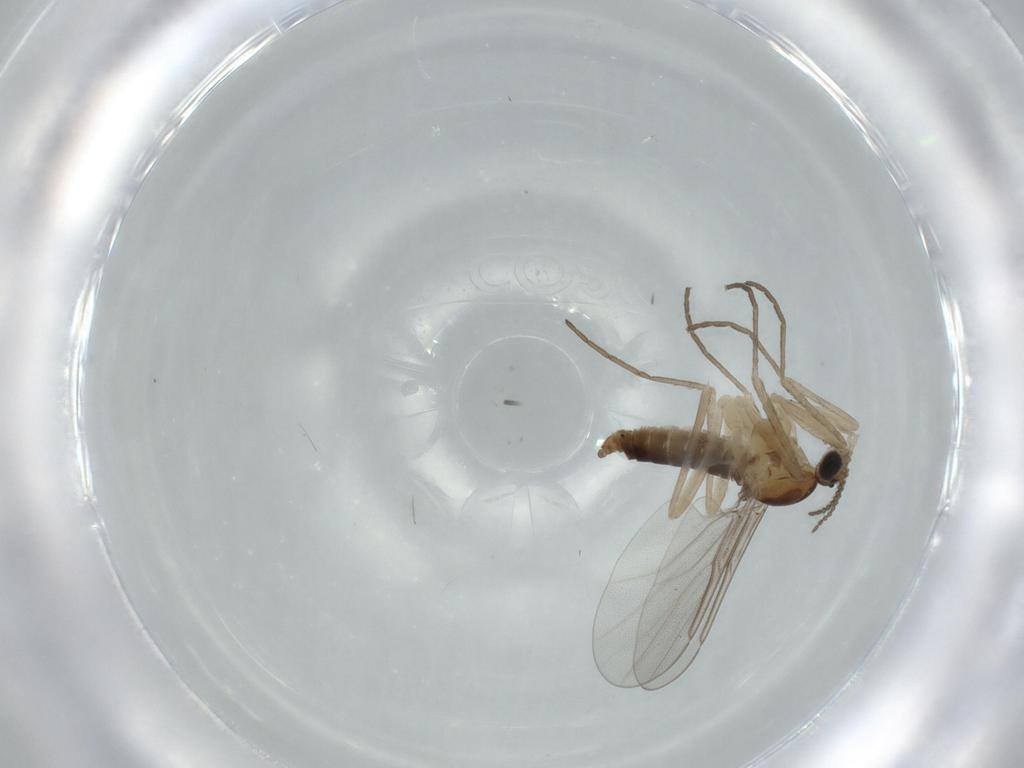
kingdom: Animalia
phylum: Arthropoda
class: Insecta
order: Diptera
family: Cecidomyiidae
